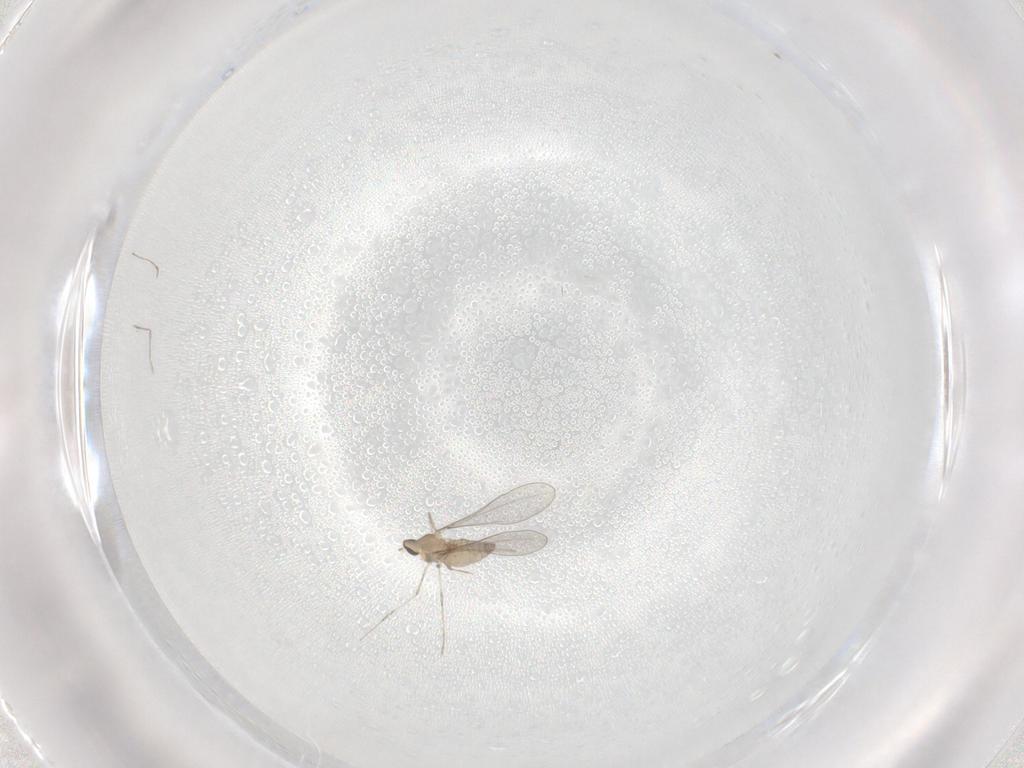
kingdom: Animalia
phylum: Arthropoda
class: Insecta
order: Diptera
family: Cecidomyiidae
